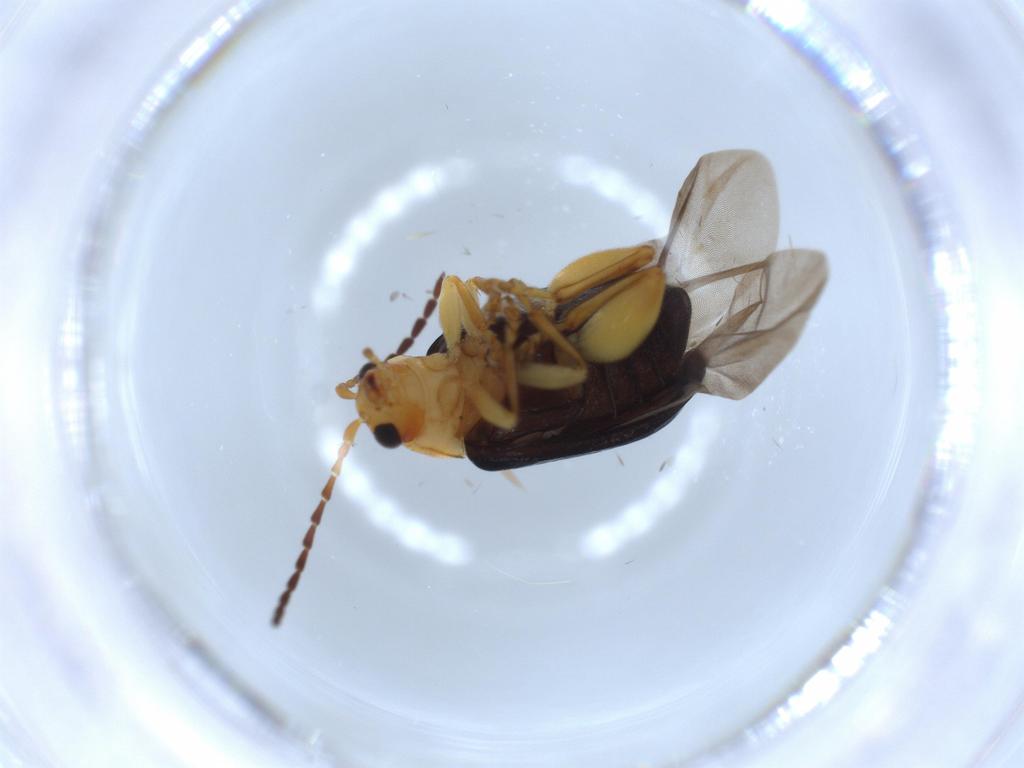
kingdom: Animalia
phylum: Arthropoda
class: Insecta
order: Coleoptera
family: Chrysomelidae
